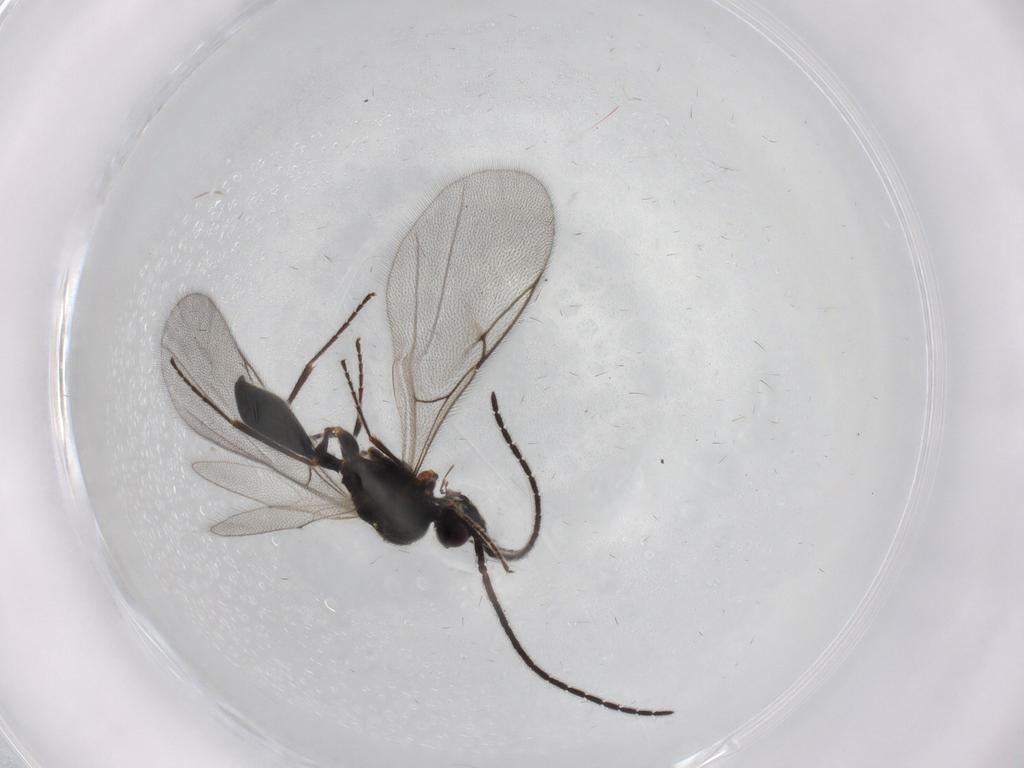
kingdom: Animalia
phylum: Arthropoda
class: Insecta
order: Hymenoptera
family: Diapriidae
